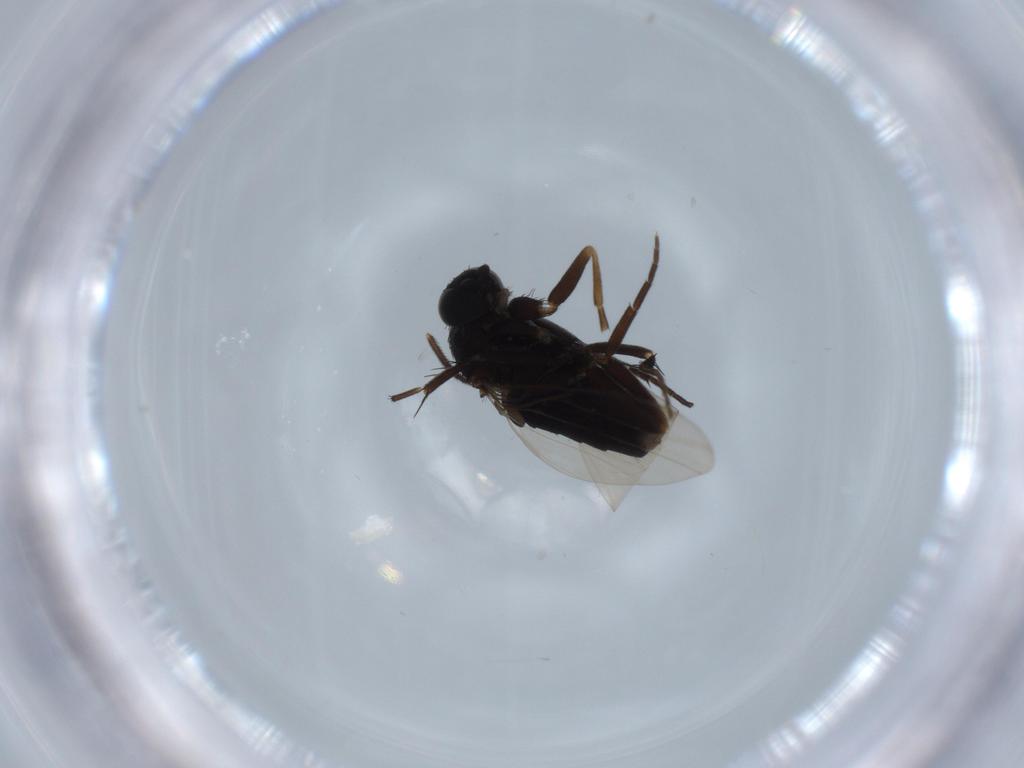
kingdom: Animalia
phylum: Arthropoda
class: Insecta
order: Diptera
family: Lonchaeidae
